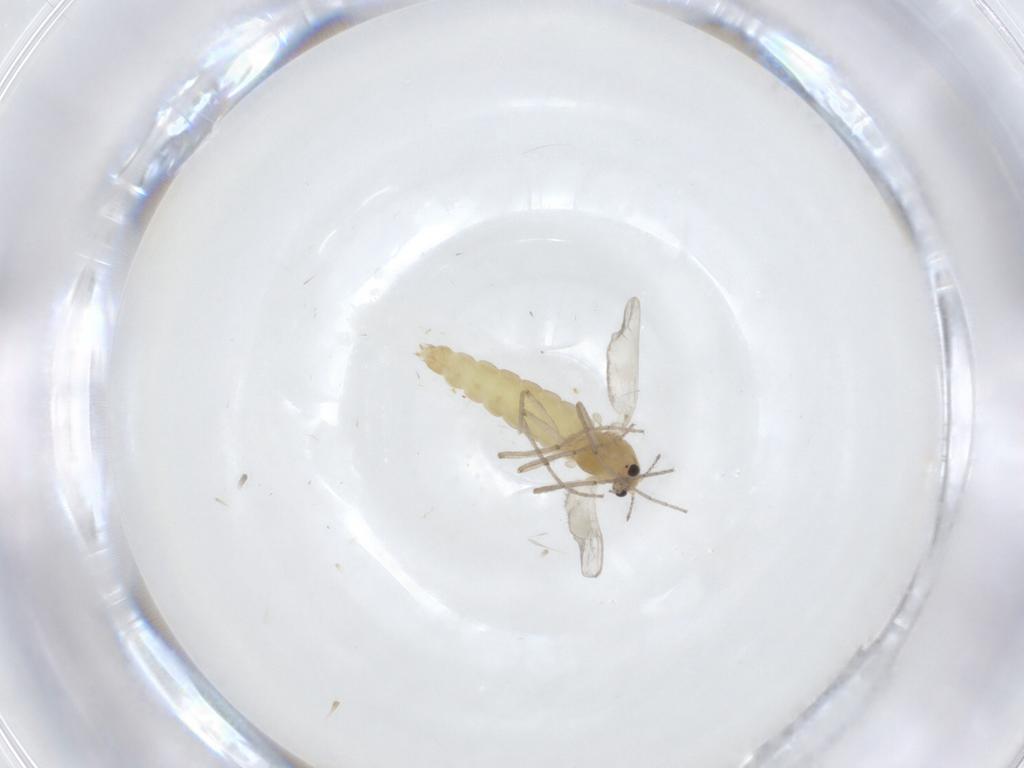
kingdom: Animalia
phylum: Arthropoda
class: Insecta
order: Diptera
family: Chironomidae
